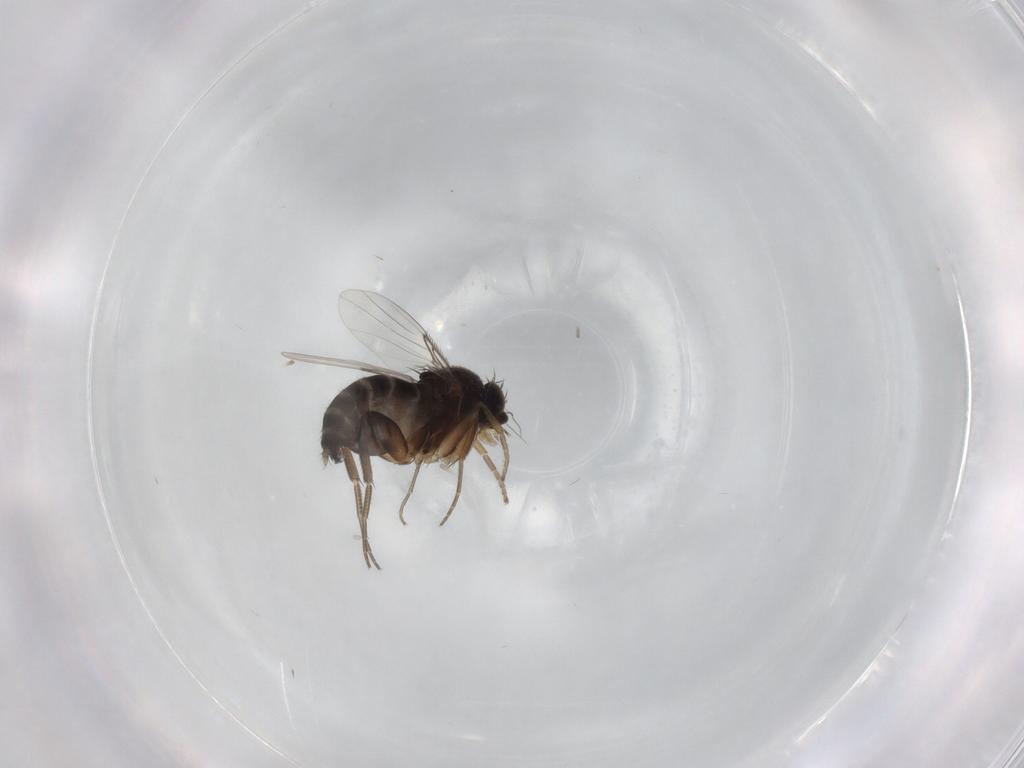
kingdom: Animalia
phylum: Arthropoda
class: Insecta
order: Diptera
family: Phoridae
